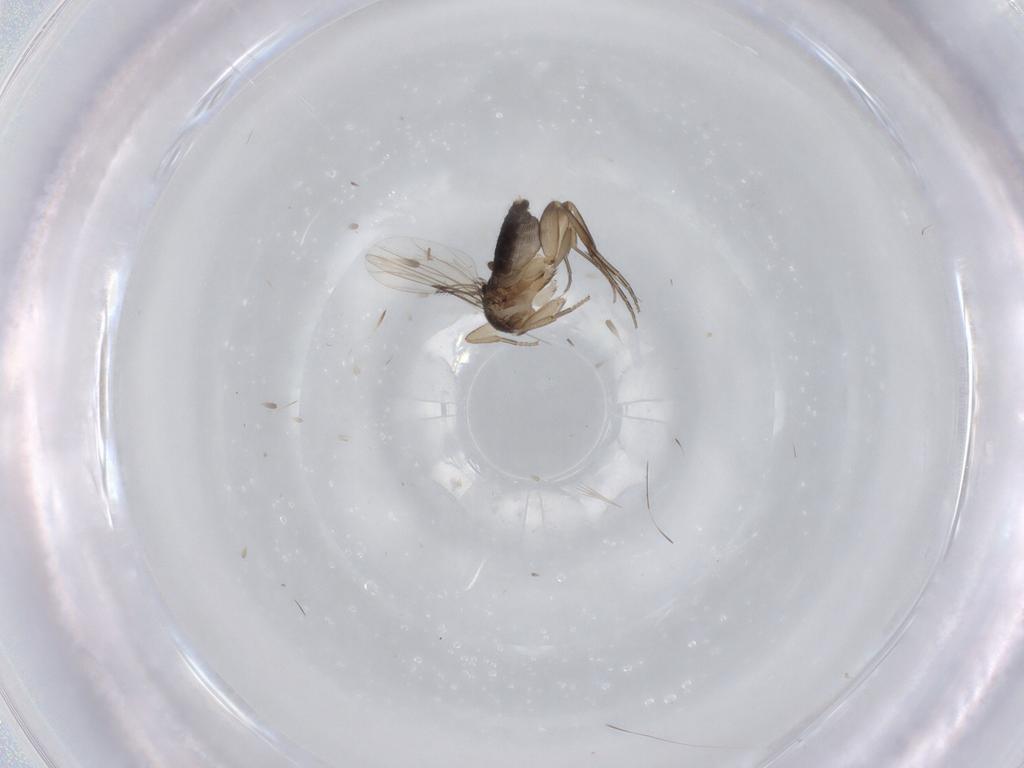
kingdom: Animalia
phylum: Arthropoda
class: Insecta
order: Diptera
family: Phoridae
